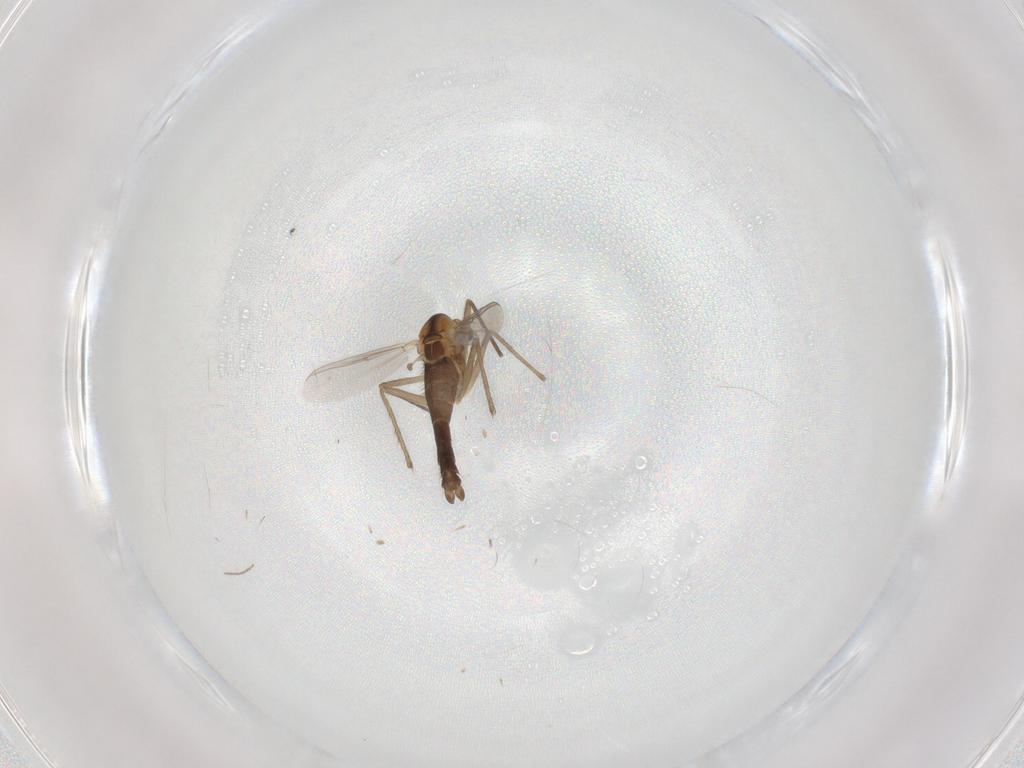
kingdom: Animalia
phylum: Arthropoda
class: Insecta
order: Diptera
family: Chironomidae
